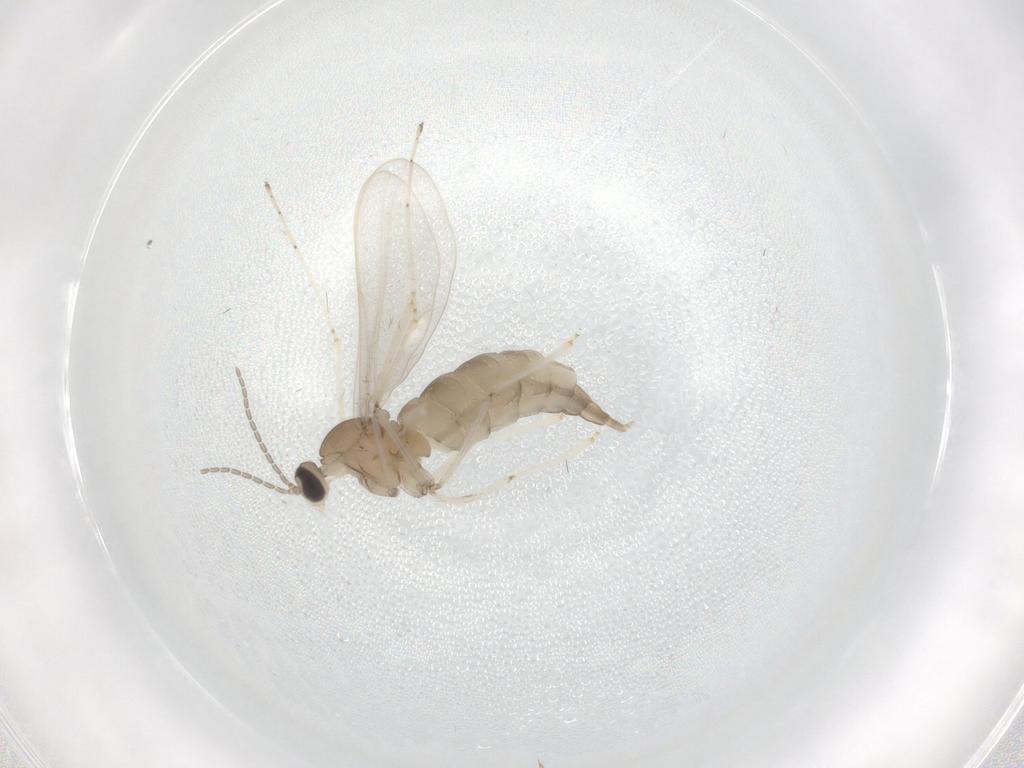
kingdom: Animalia
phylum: Arthropoda
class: Insecta
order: Diptera
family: Cecidomyiidae
